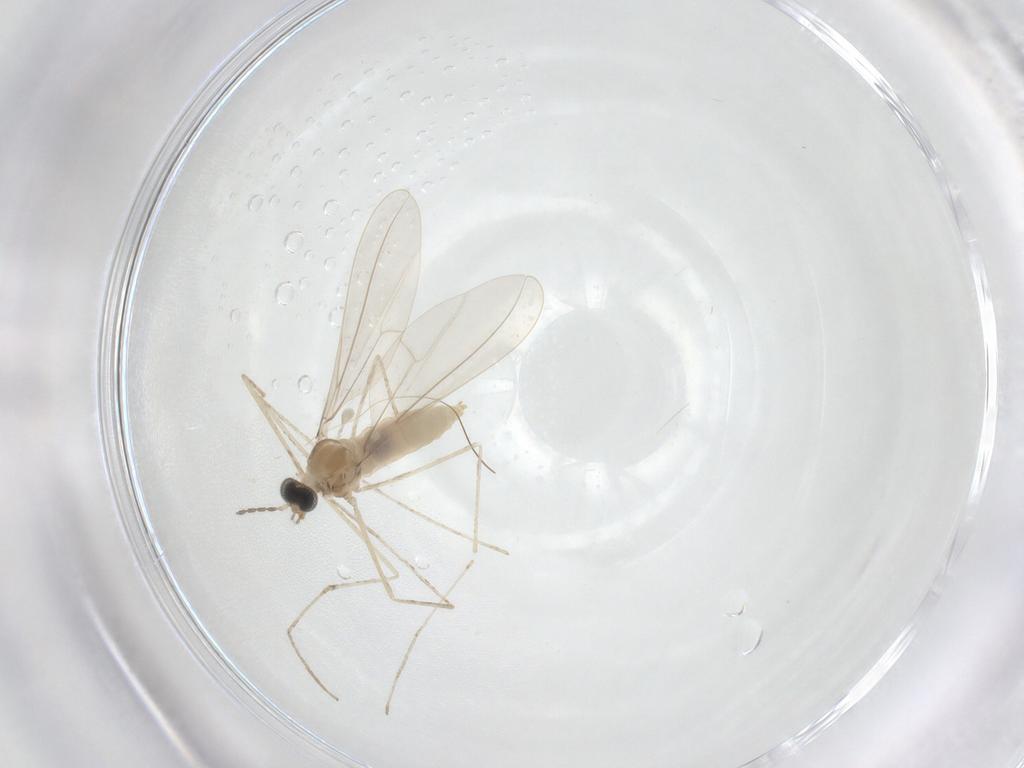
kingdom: Animalia
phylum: Arthropoda
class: Insecta
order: Diptera
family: Cecidomyiidae
